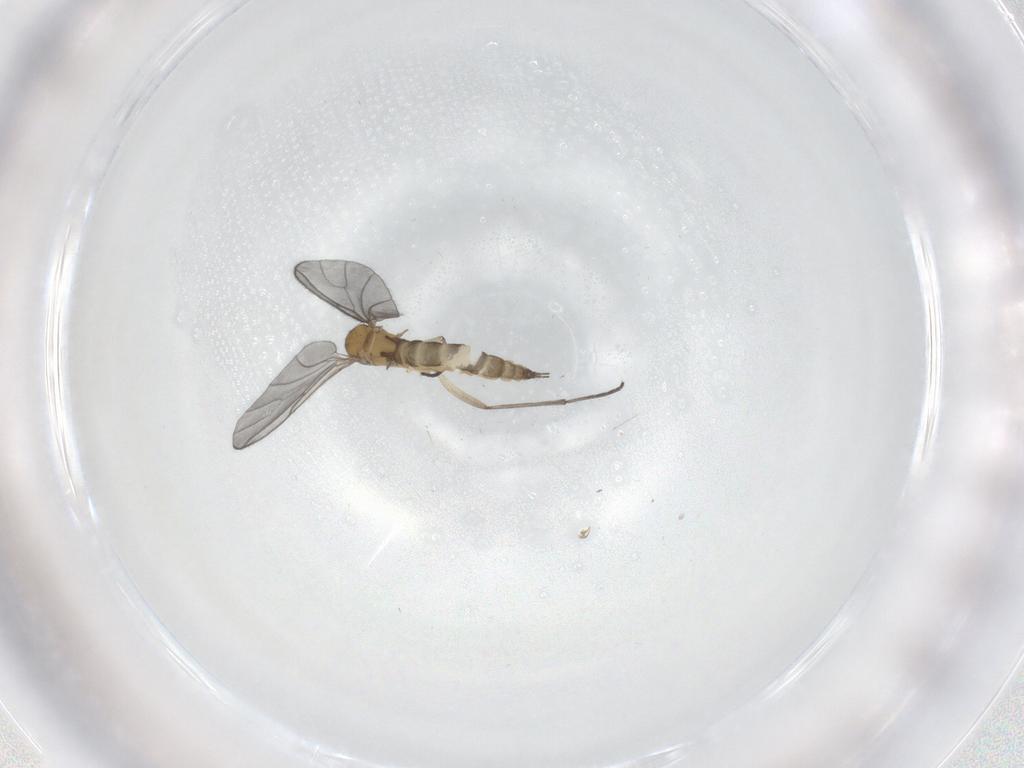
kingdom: Animalia
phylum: Arthropoda
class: Insecta
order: Diptera
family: Sciaridae
